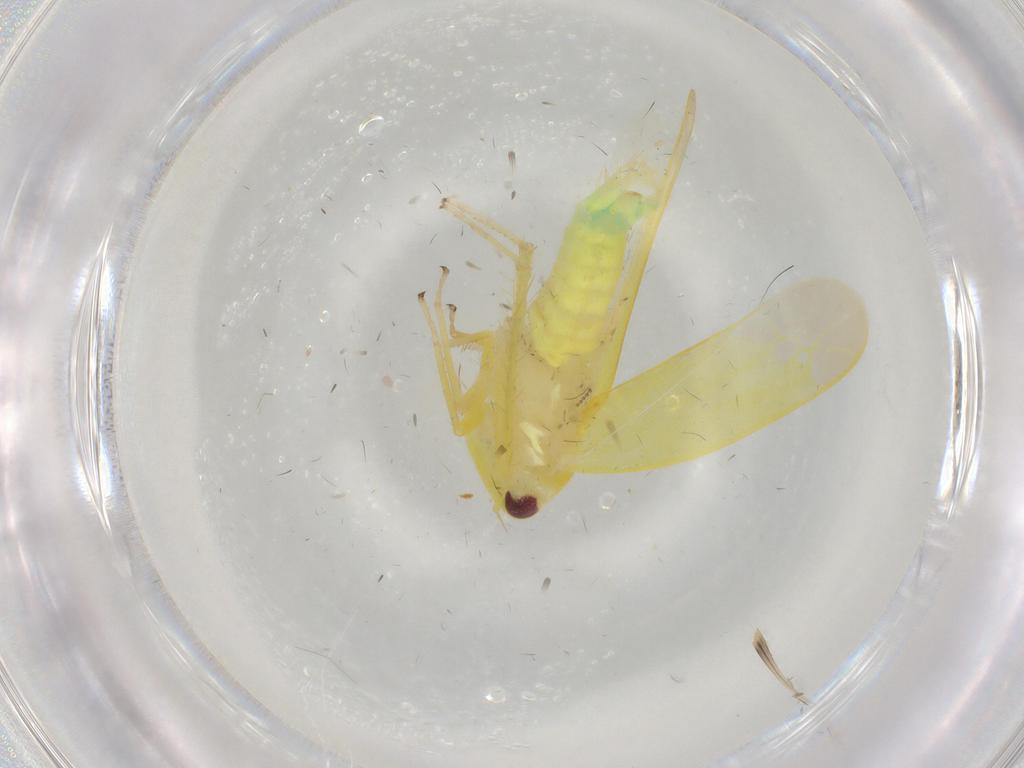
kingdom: Animalia
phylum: Arthropoda
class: Insecta
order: Hemiptera
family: Cicadellidae
